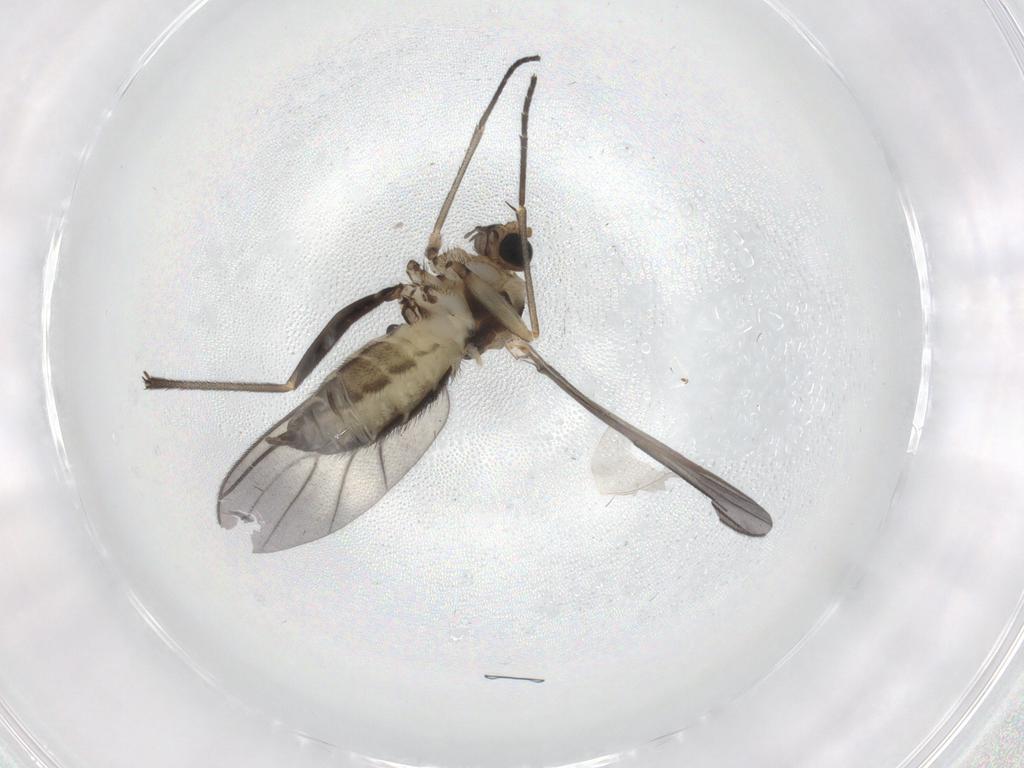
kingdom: Animalia
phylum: Arthropoda
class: Insecta
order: Diptera
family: Sciaridae
